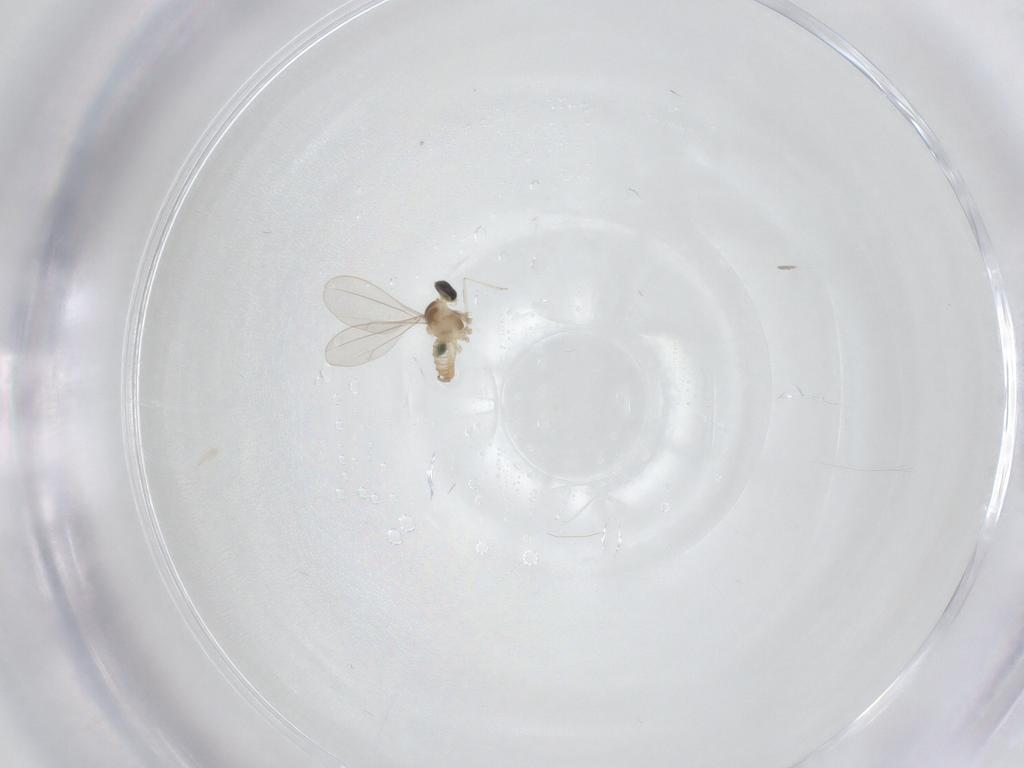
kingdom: Animalia
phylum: Arthropoda
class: Insecta
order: Diptera
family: Cecidomyiidae
